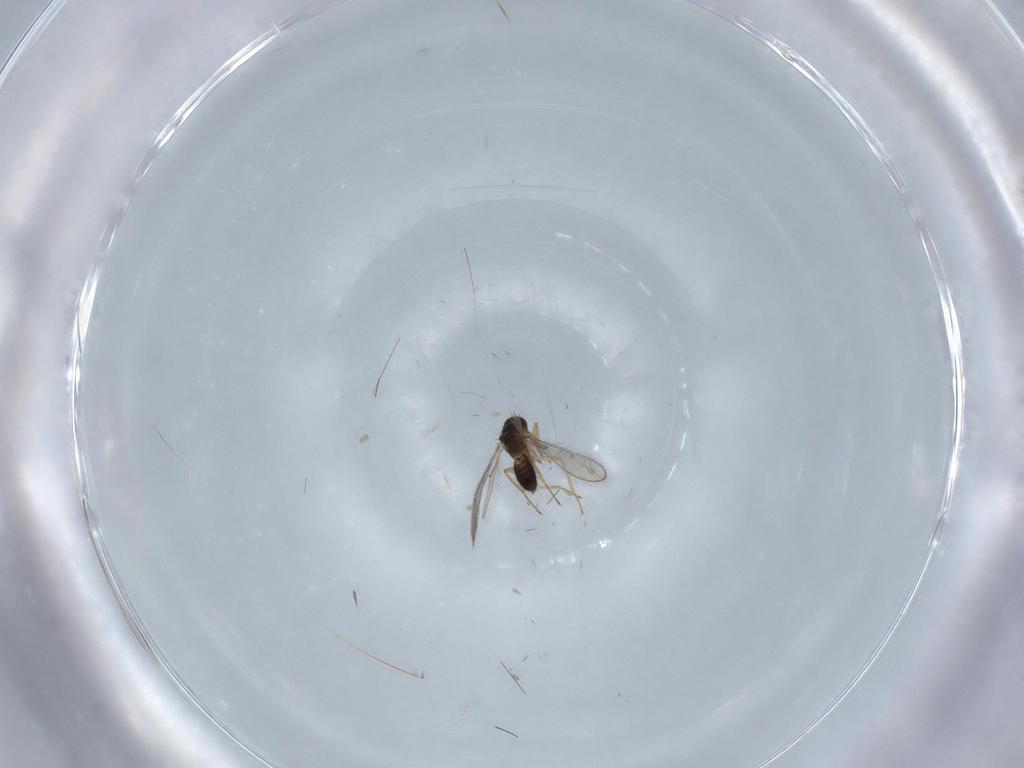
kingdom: Animalia
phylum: Arthropoda
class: Insecta
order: Hymenoptera
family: Eulophidae
